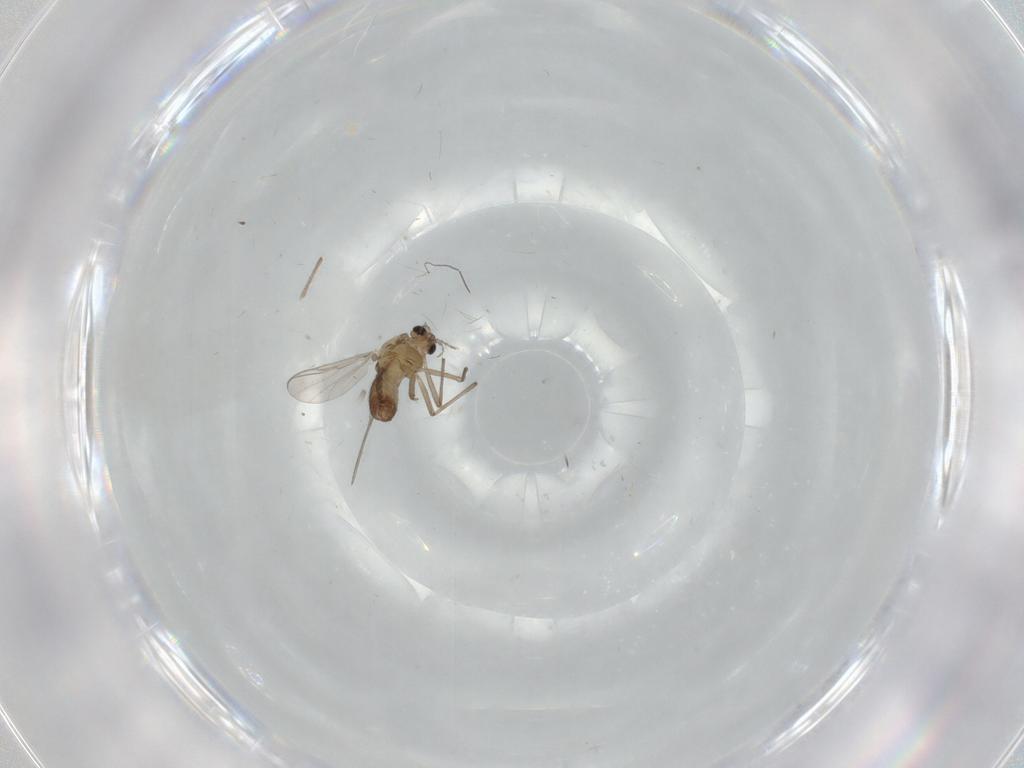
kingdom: Animalia
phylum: Arthropoda
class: Insecta
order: Diptera
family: Chironomidae
